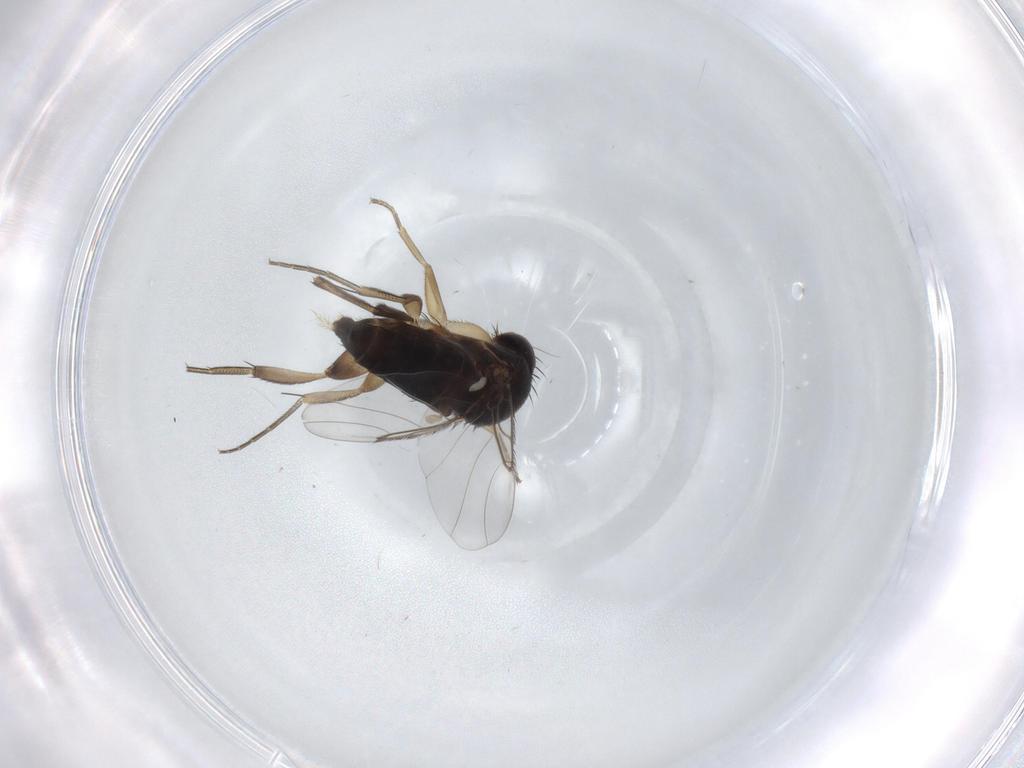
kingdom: Animalia
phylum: Arthropoda
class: Insecta
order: Diptera
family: Phoridae
